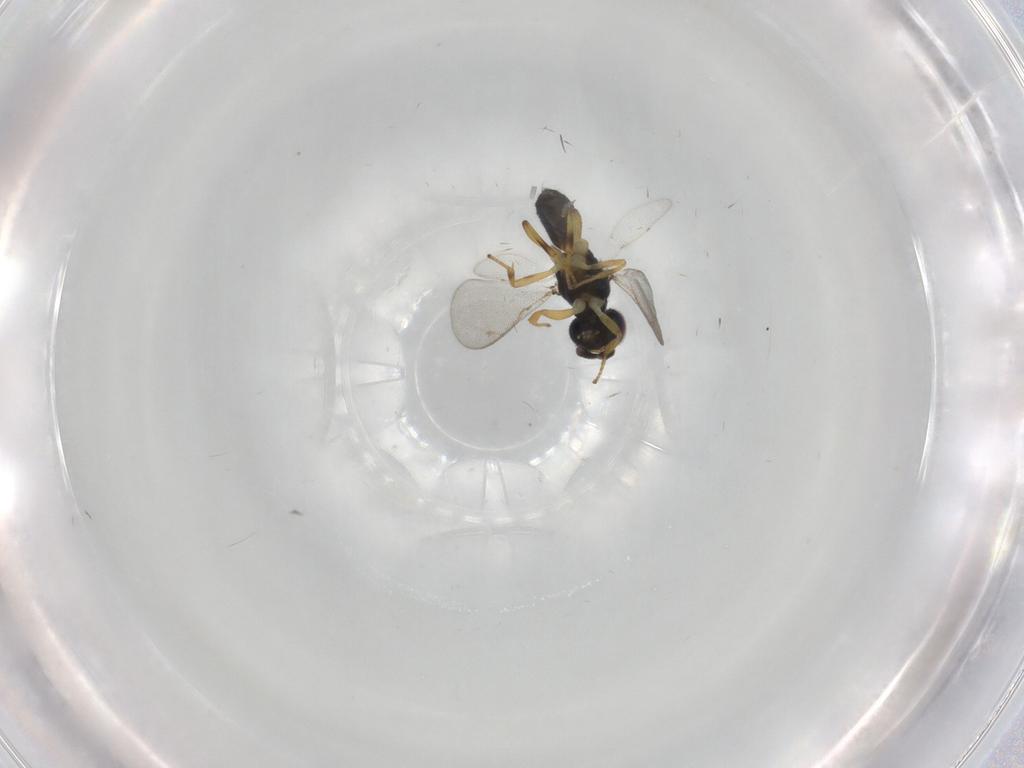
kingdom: Animalia
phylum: Arthropoda
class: Insecta
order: Hymenoptera
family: Eupelmidae
